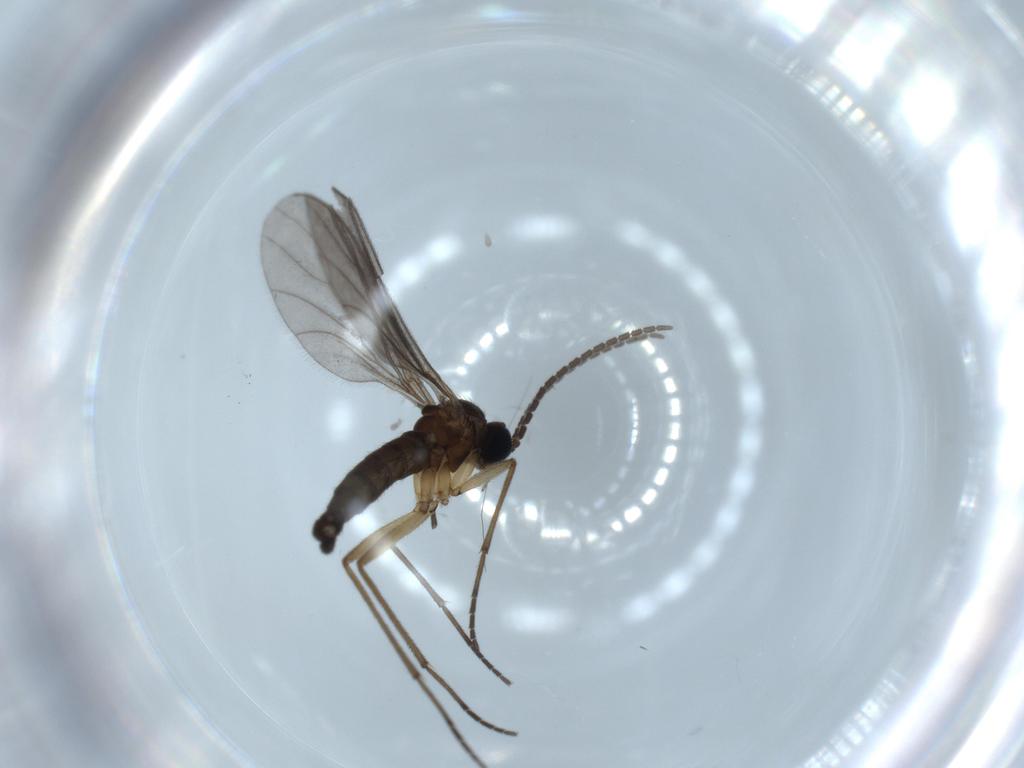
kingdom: Animalia
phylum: Arthropoda
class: Insecta
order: Diptera
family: Sciaridae
